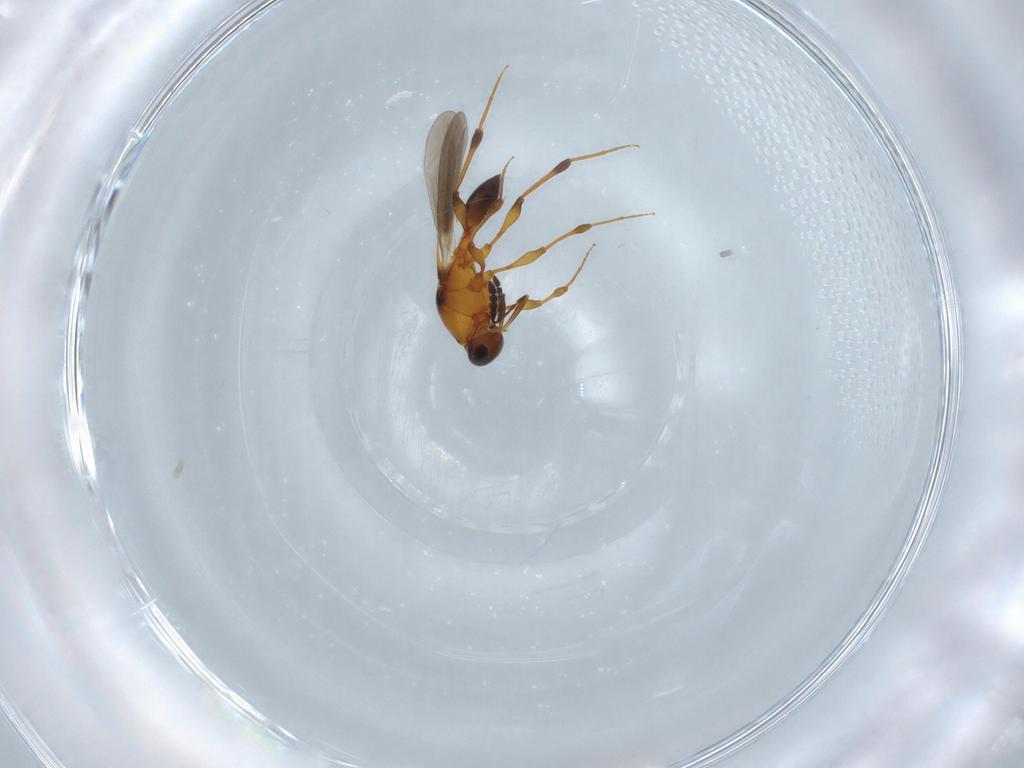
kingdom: Animalia
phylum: Arthropoda
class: Insecta
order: Hymenoptera
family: Platygastridae
